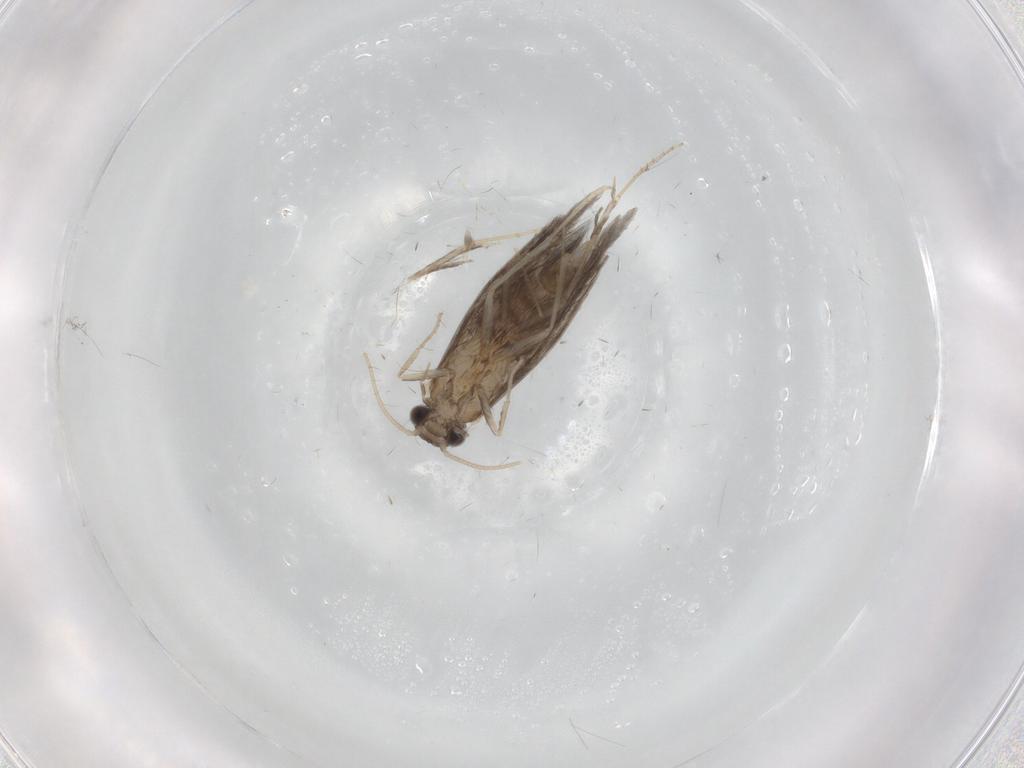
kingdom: Animalia
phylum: Arthropoda
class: Insecta
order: Trichoptera
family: Hydroptilidae
